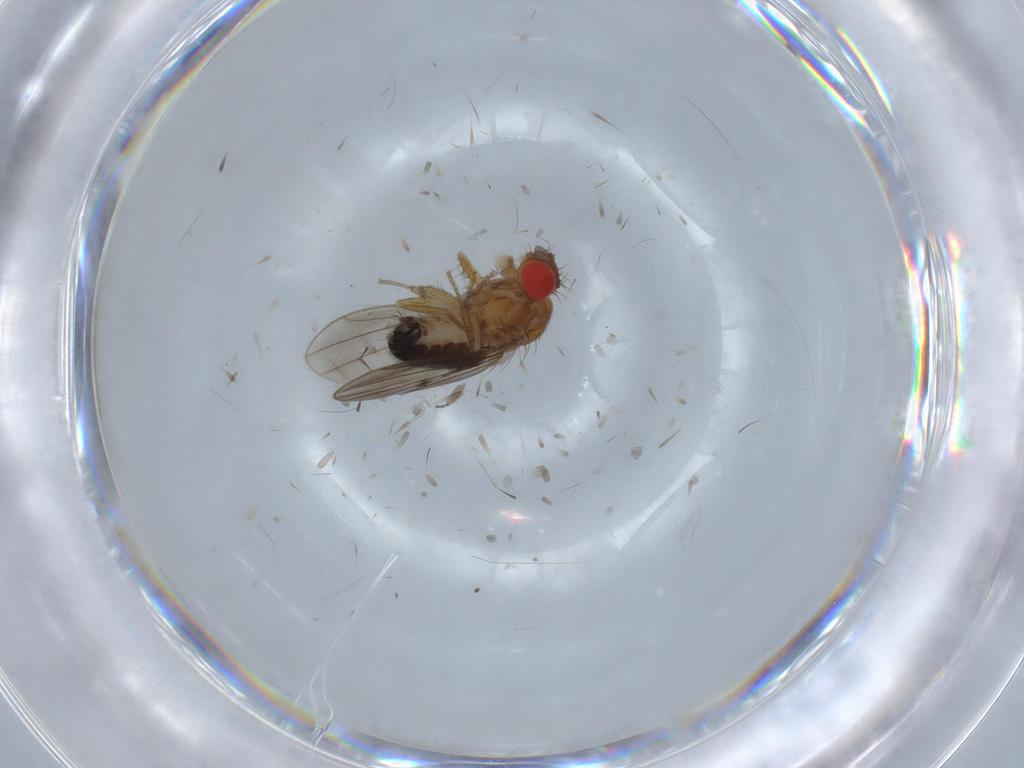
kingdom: Animalia
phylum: Arthropoda
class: Insecta
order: Diptera
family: Drosophilidae
